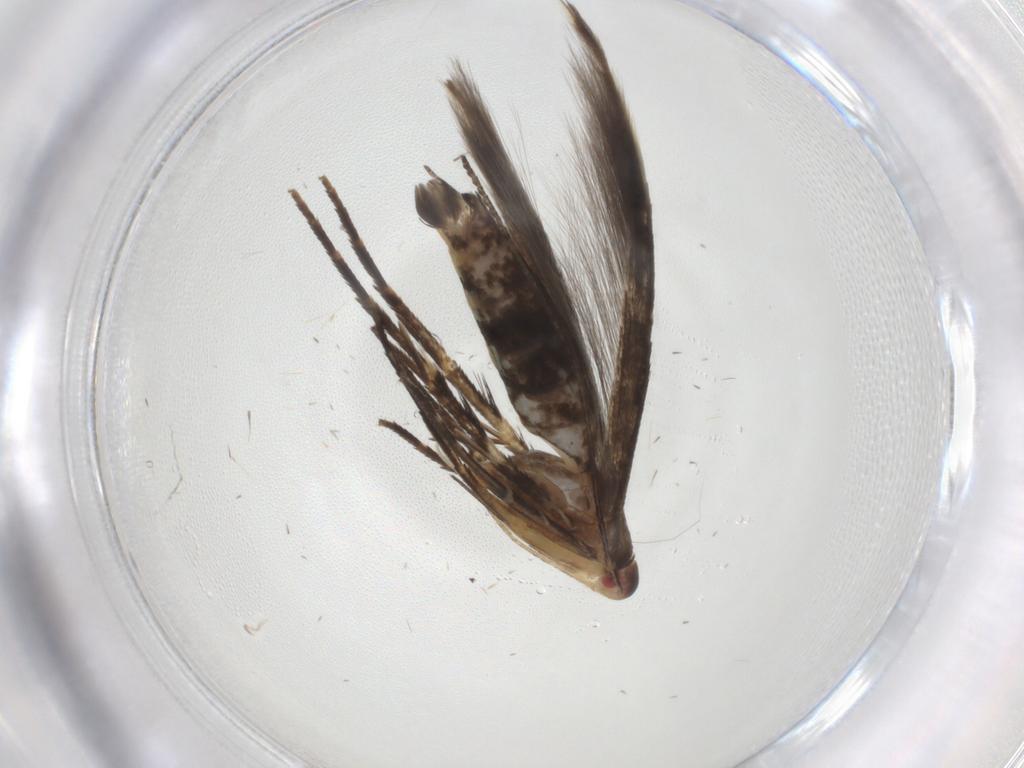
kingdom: Animalia
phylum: Arthropoda
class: Insecta
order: Lepidoptera
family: Cosmopterigidae
